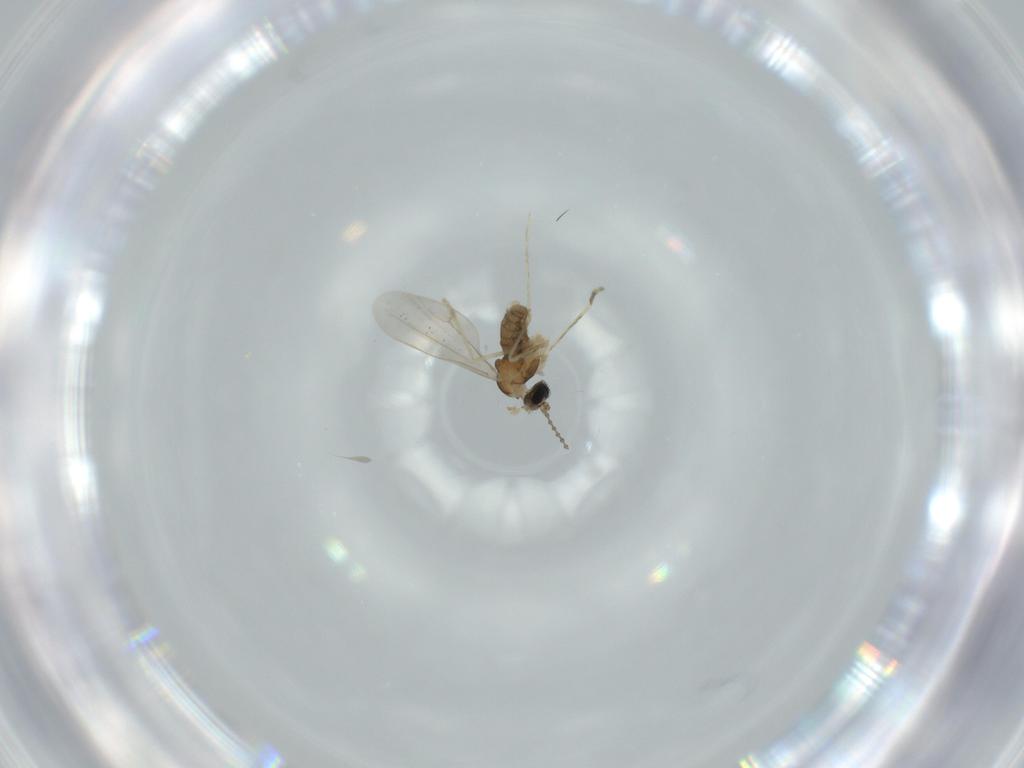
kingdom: Animalia
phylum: Arthropoda
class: Insecta
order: Diptera
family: Cecidomyiidae
